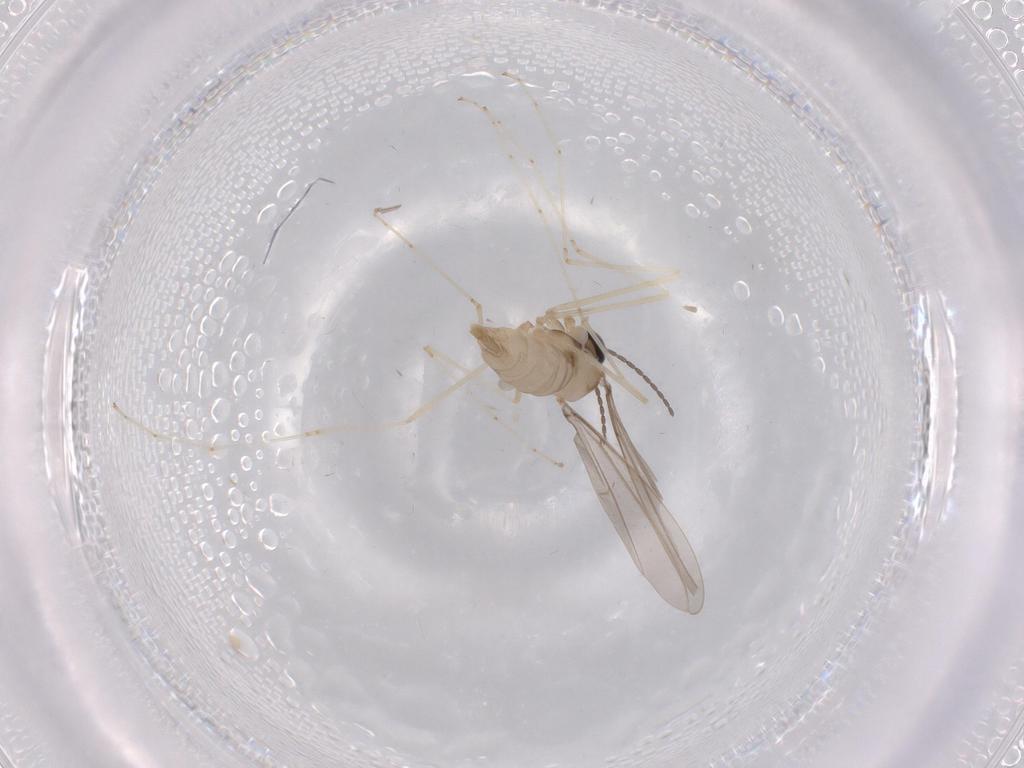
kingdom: Animalia
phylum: Arthropoda
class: Insecta
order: Diptera
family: Cecidomyiidae
